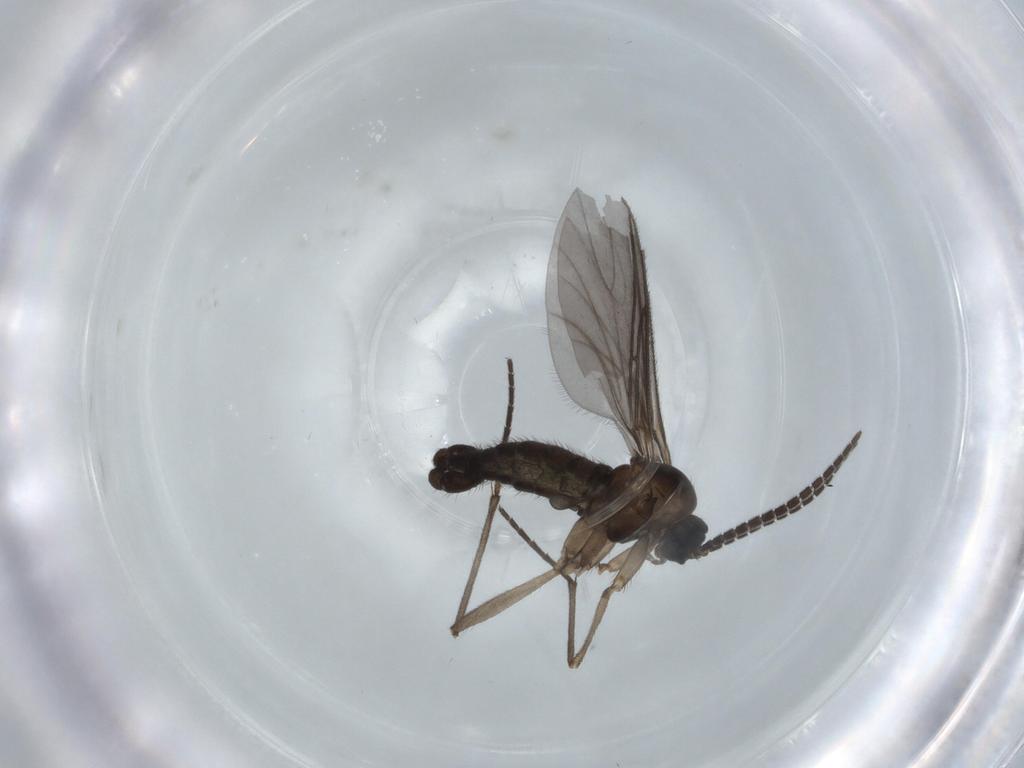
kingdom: Animalia
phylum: Arthropoda
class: Insecta
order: Diptera
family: Sciaridae
